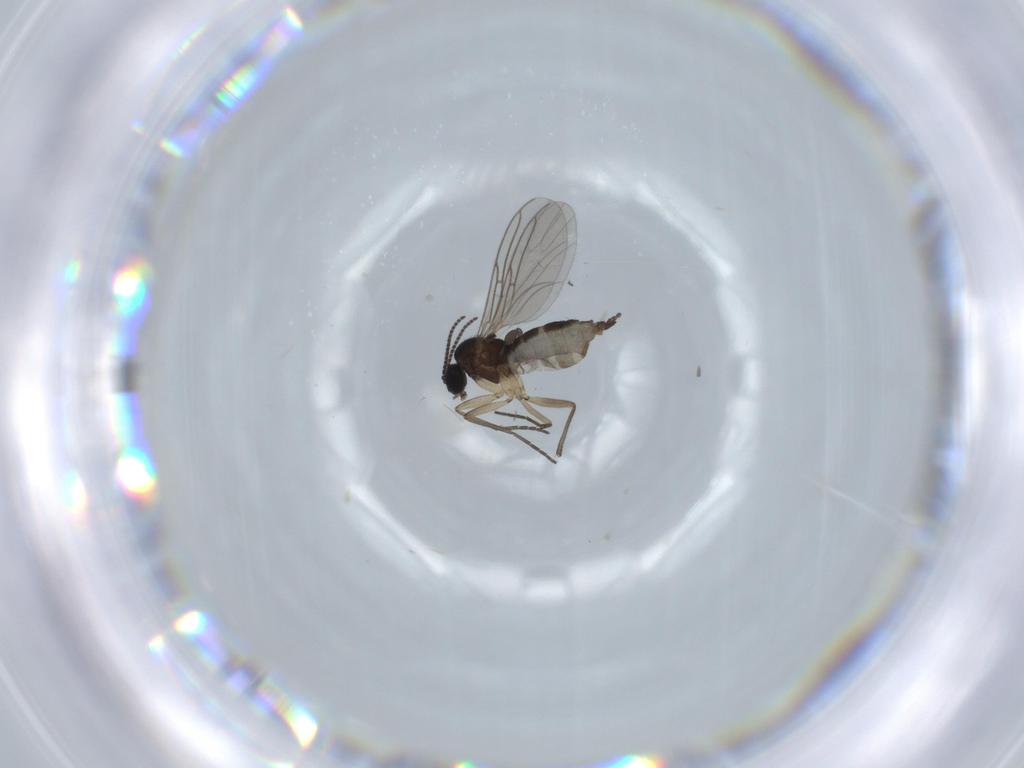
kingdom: Animalia
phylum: Arthropoda
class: Insecta
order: Diptera
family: Sciaridae
